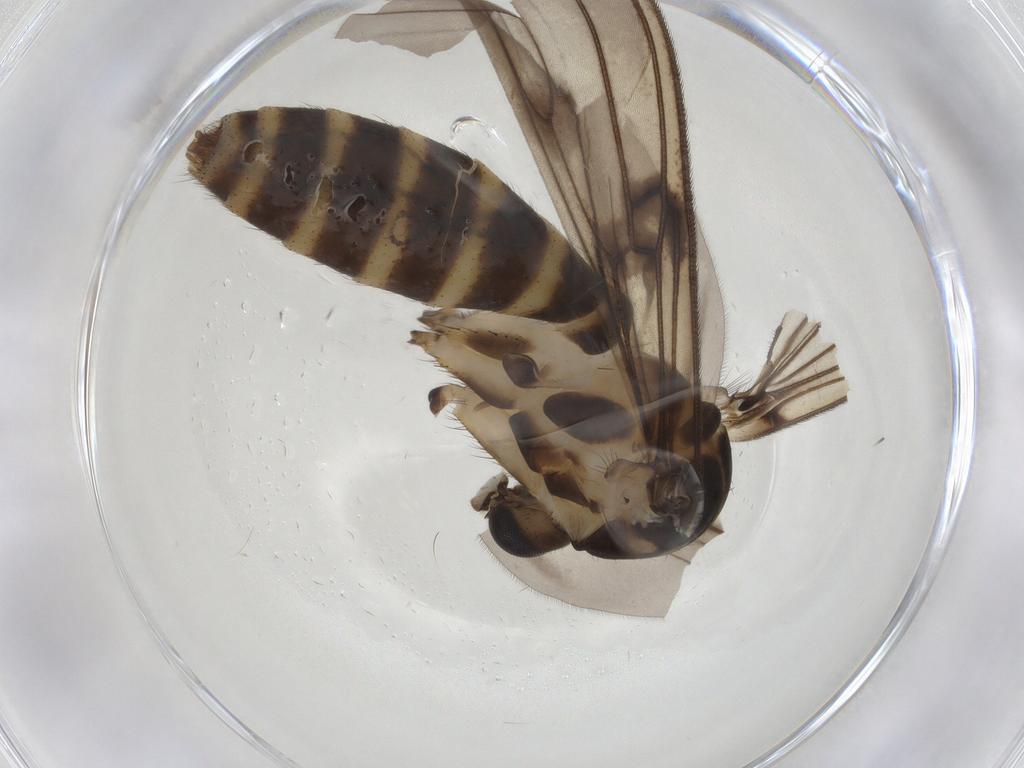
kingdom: Animalia
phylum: Arthropoda
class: Insecta
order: Diptera
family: Mycetophilidae
